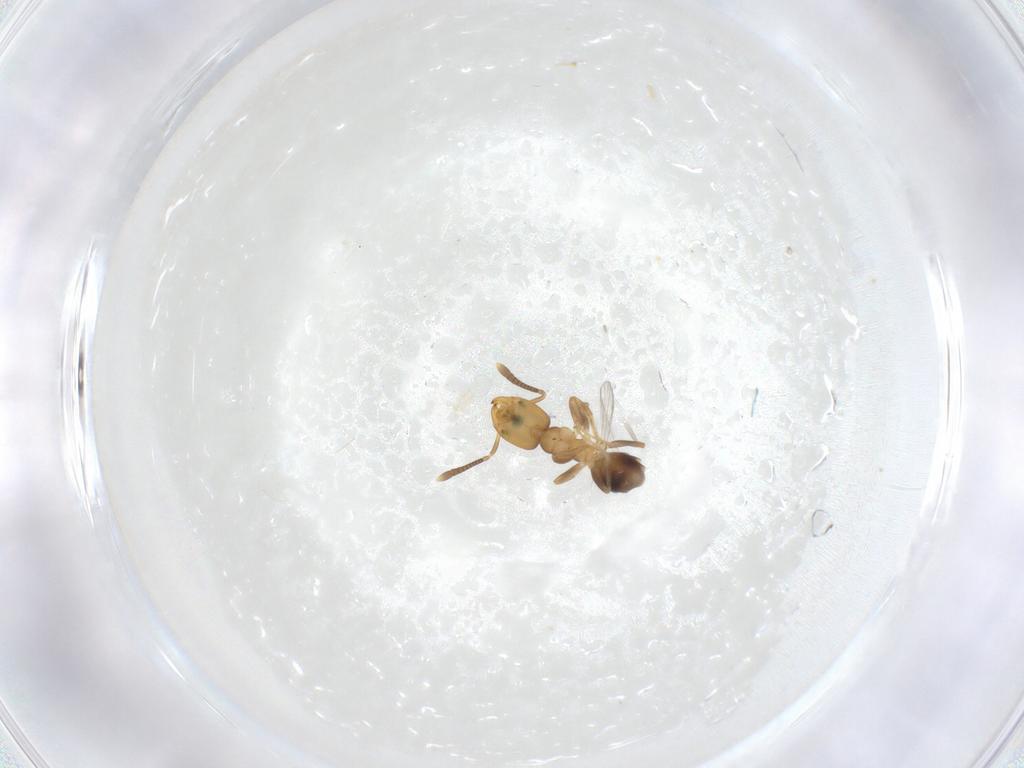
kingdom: Animalia
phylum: Arthropoda
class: Insecta
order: Hymenoptera
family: Formicidae
